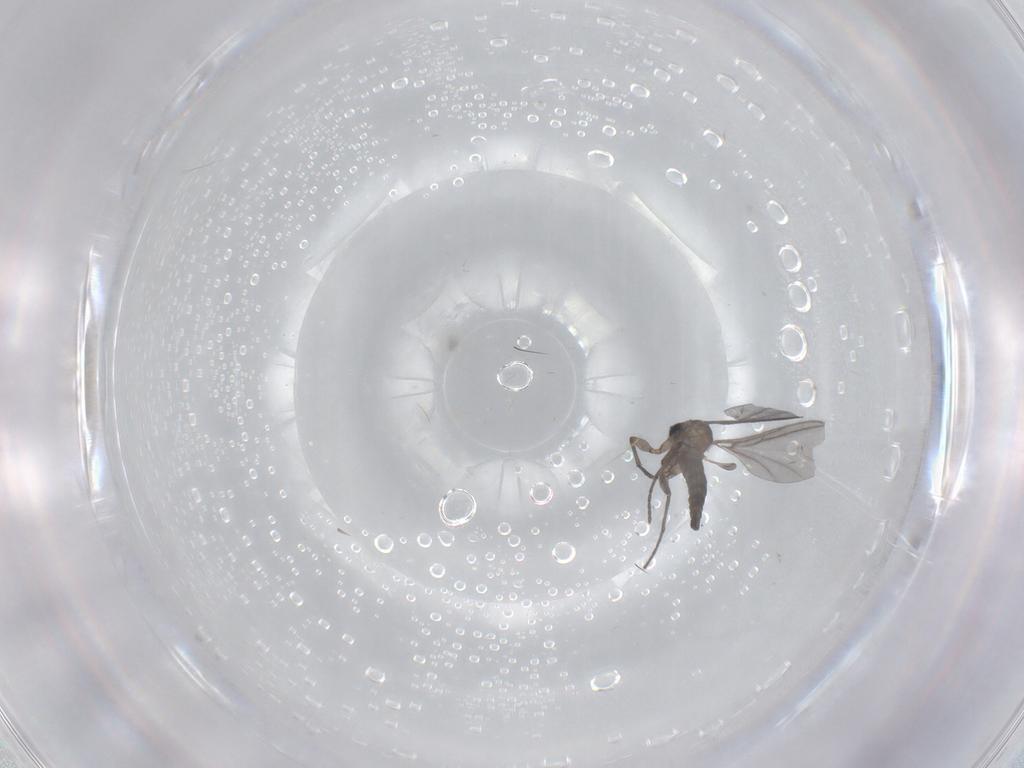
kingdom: Animalia
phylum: Arthropoda
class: Insecta
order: Diptera
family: Sciaridae
